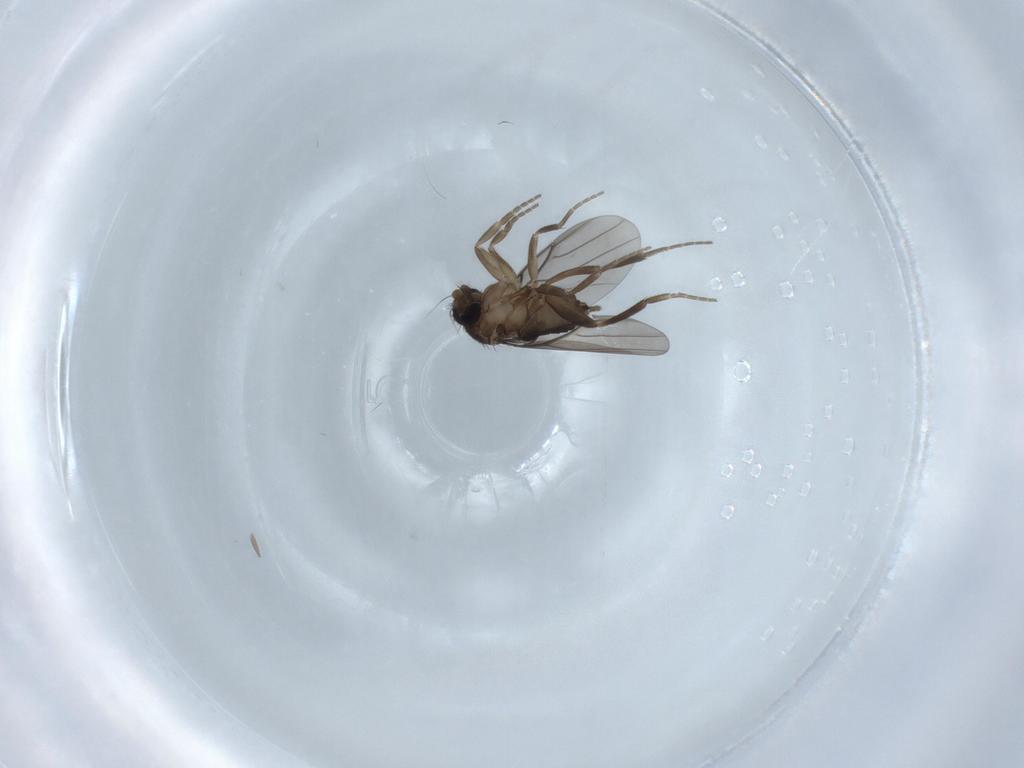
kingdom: Animalia
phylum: Arthropoda
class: Insecta
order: Diptera
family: Phoridae
